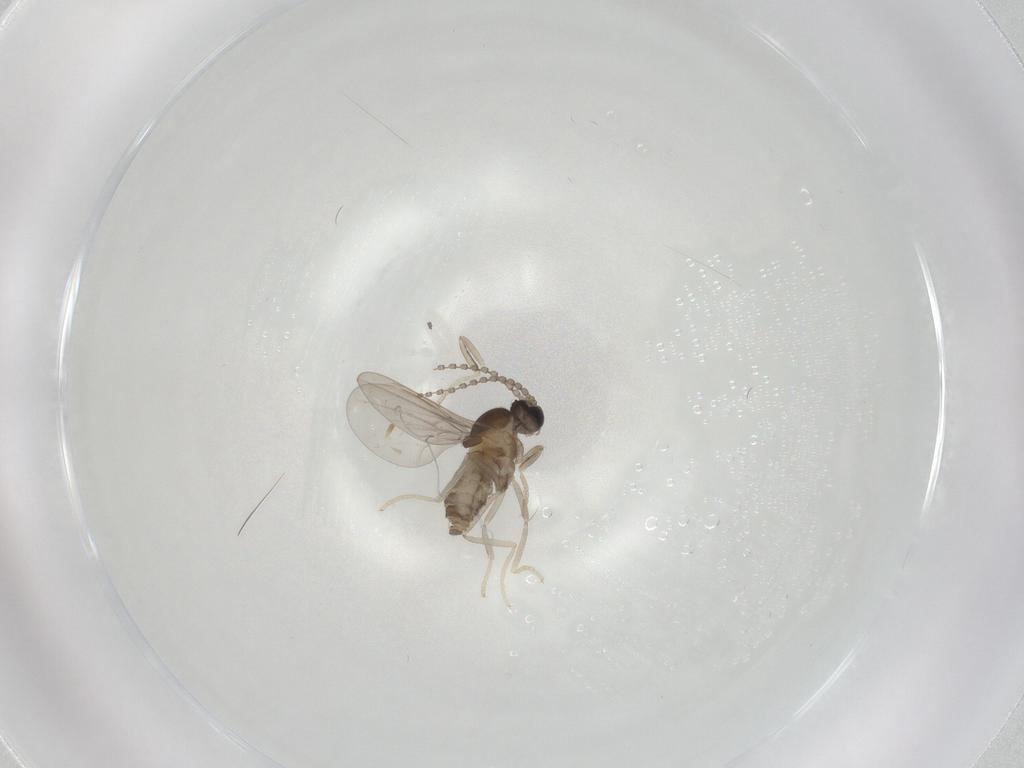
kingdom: Animalia
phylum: Arthropoda
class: Insecta
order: Diptera
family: Cecidomyiidae
